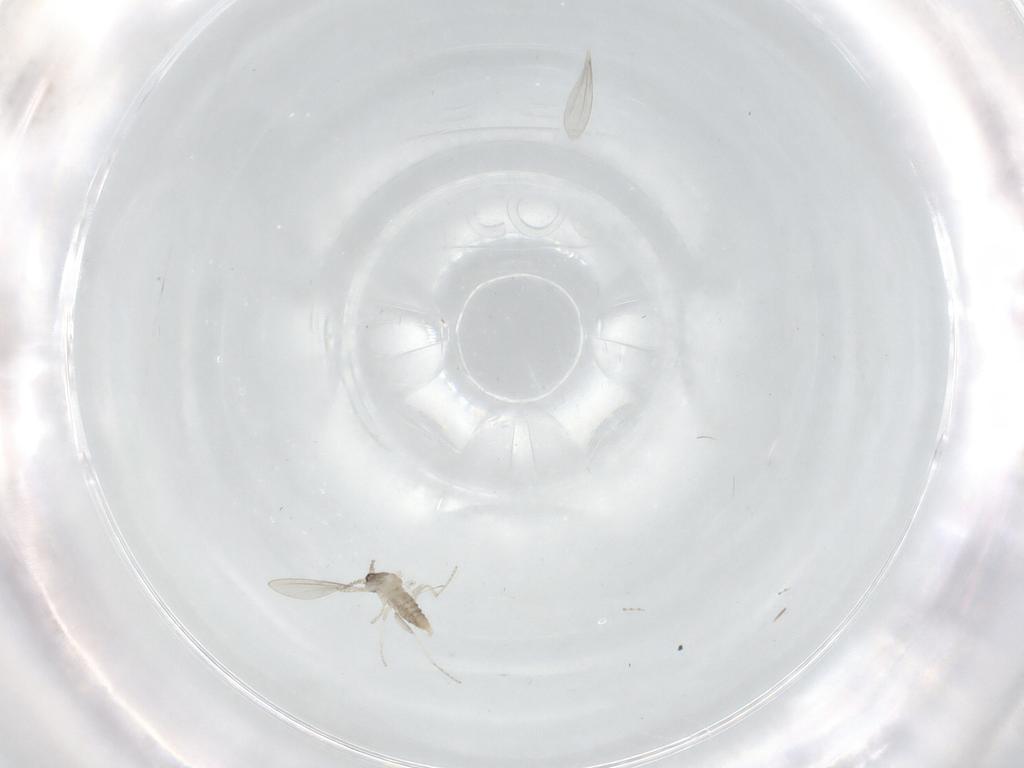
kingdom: Animalia
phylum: Arthropoda
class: Insecta
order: Diptera
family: Cecidomyiidae
